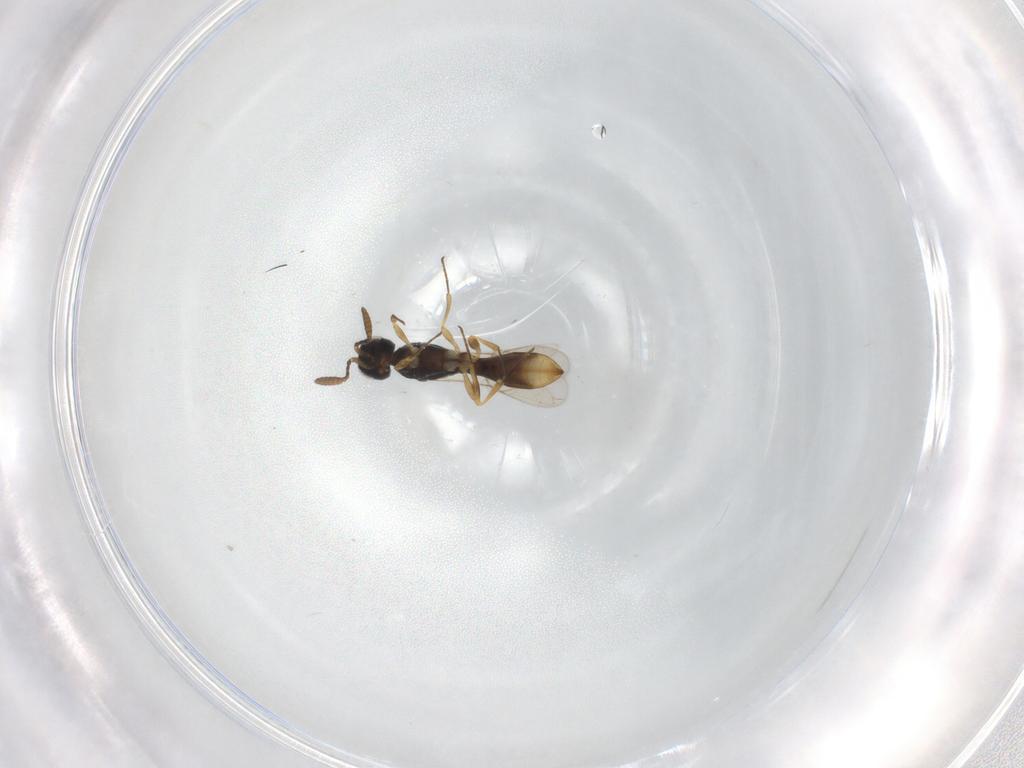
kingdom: Animalia
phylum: Arthropoda
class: Insecta
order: Hymenoptera
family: Scelionidae
